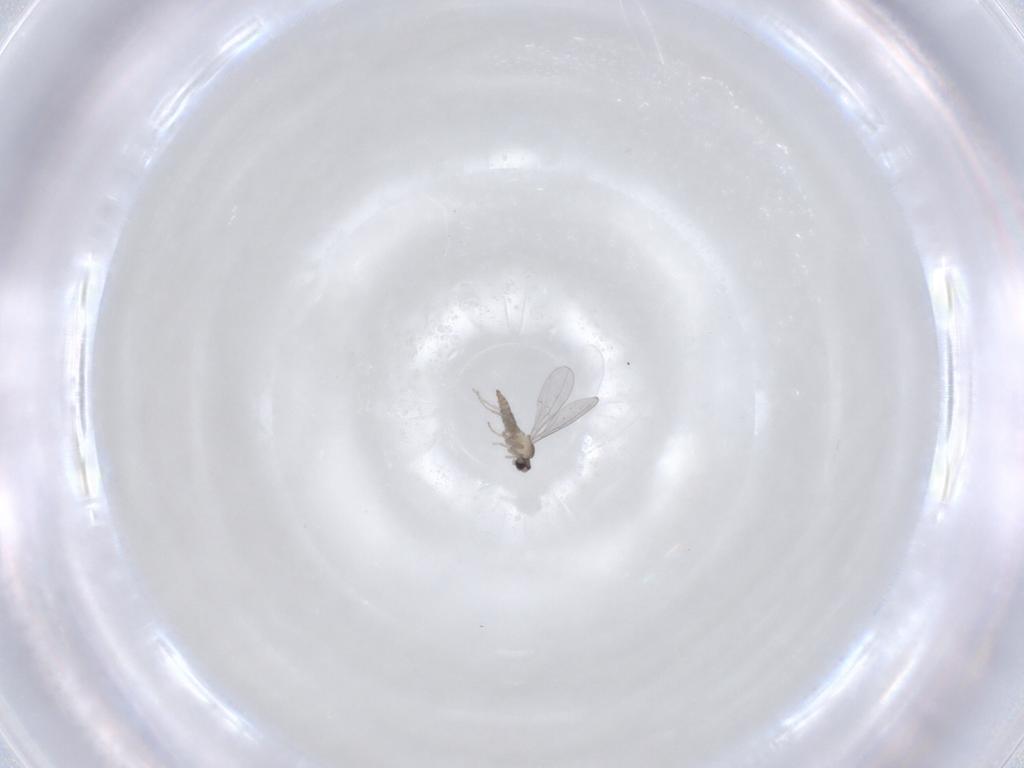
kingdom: Animalia
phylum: Arthropoda
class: Insecta
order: Diptera
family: Cecidomyiidae
